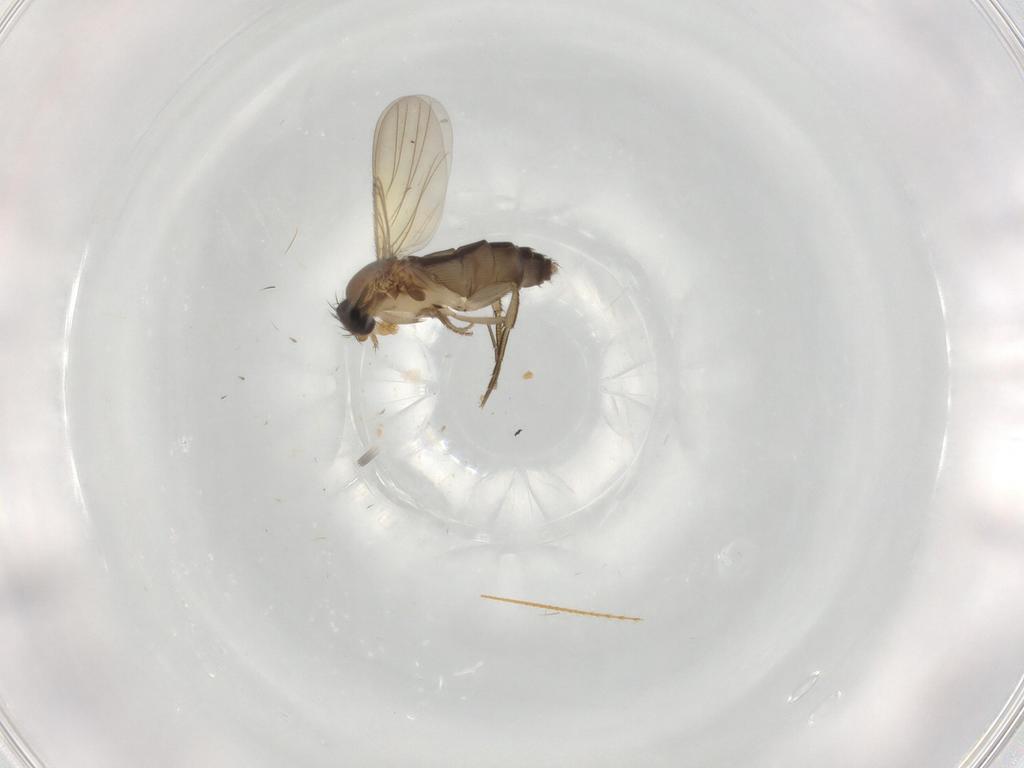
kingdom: Animalia
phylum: Arthropoda
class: Insecta
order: Diptera
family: Phoridae
